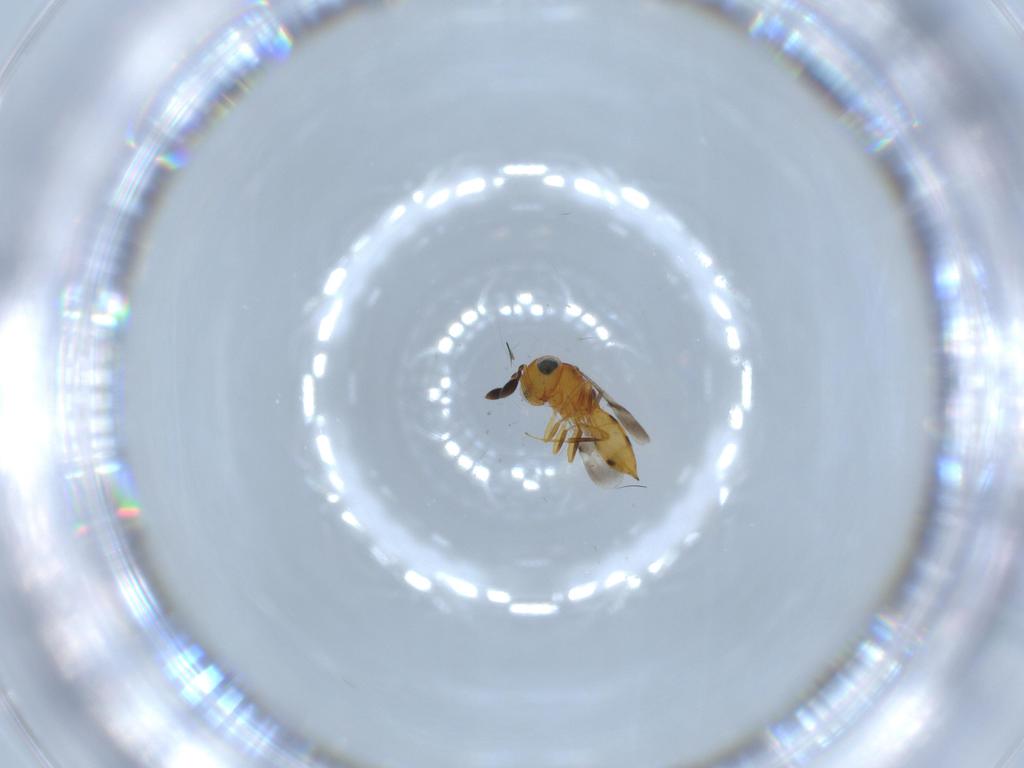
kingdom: Animalia
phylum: Arthropoda
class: Insecta
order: Hymenoptera
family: Scelionidae
